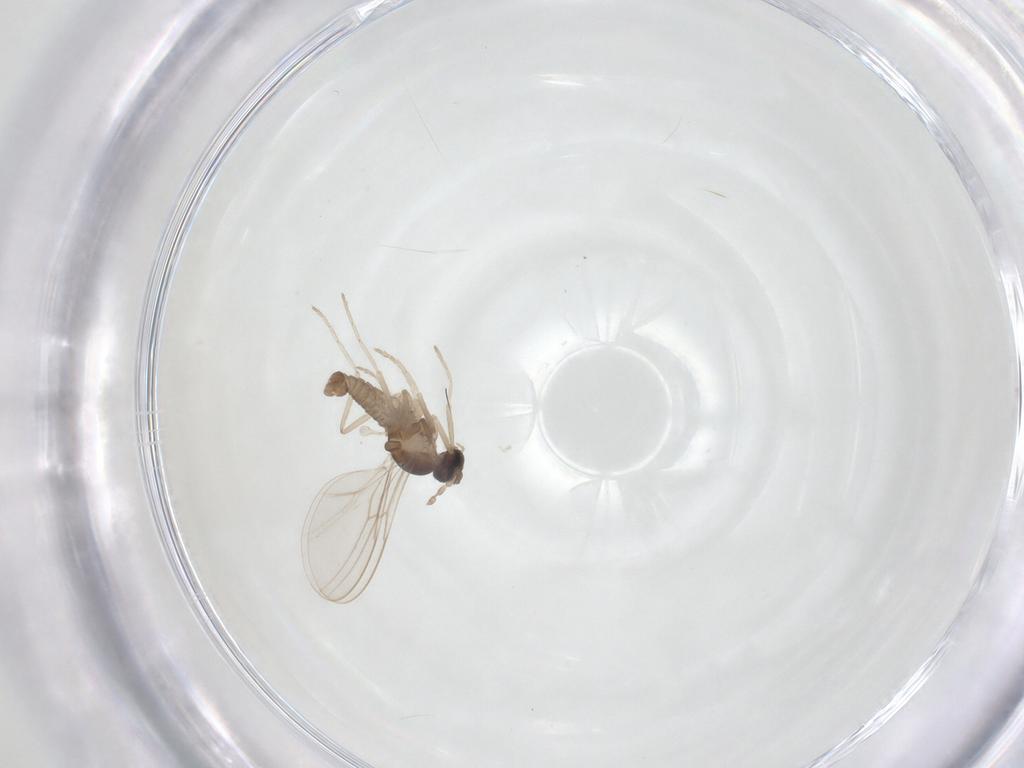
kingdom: Animalia
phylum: Arthropoda
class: Insecta
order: Diptera
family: Cecidomyiidae
